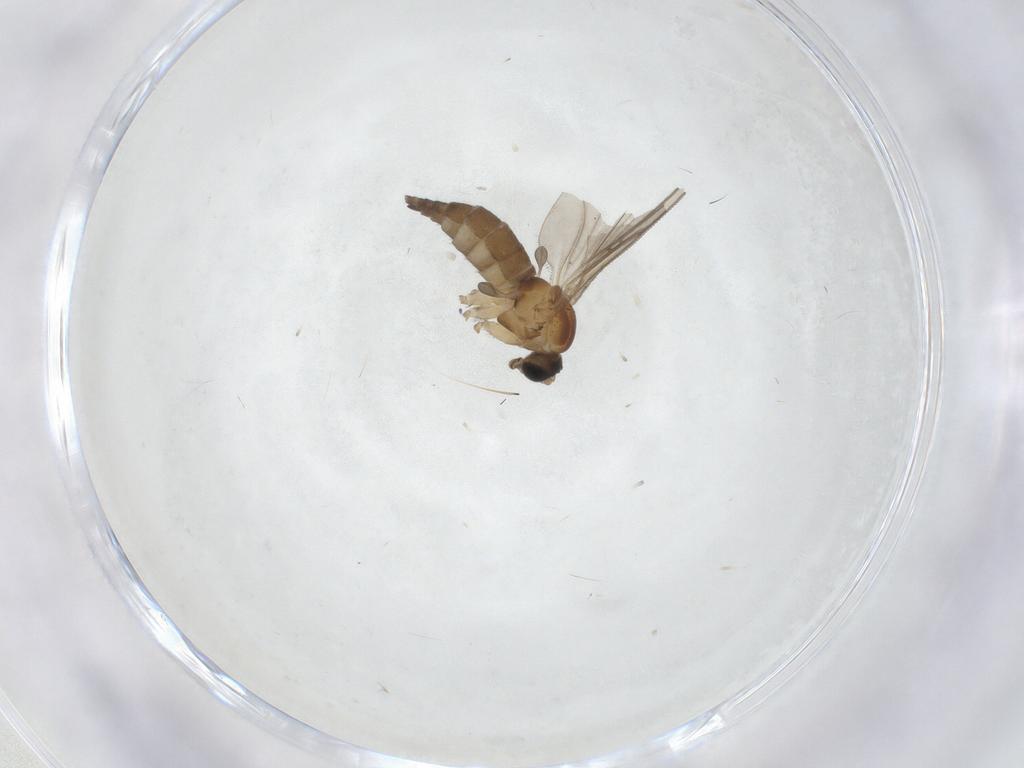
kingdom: Animalia
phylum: Arthropoda
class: Insecta
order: Diptera
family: Sciaridae
